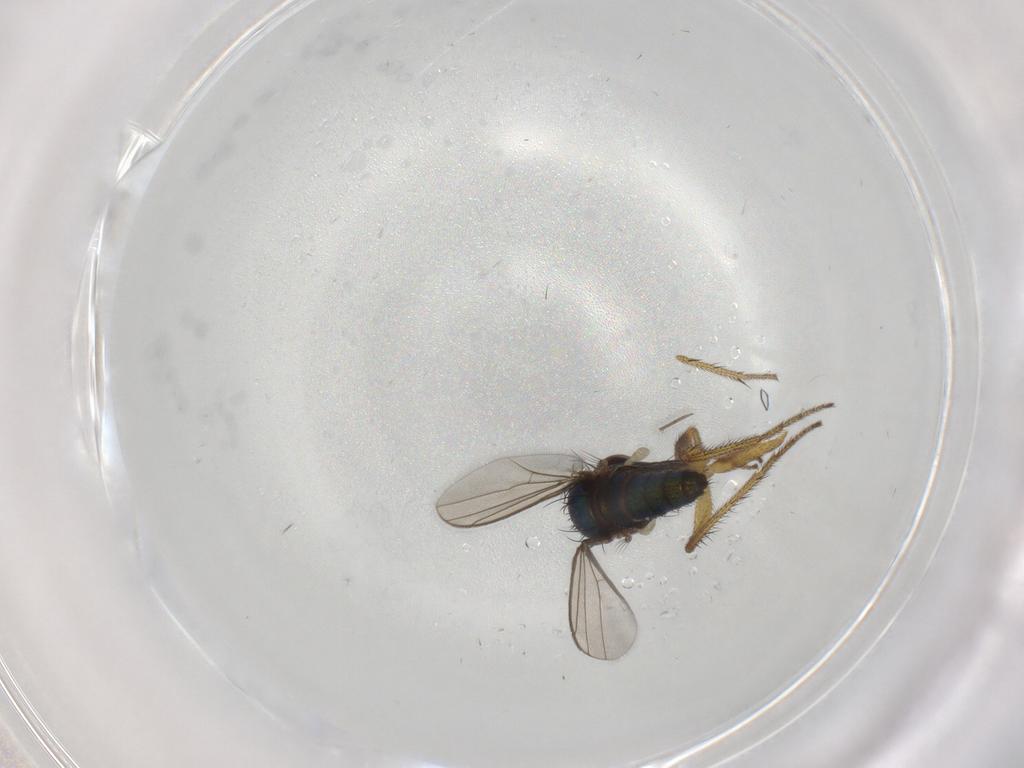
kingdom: Animalia
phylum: Arthropoda
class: Insecta
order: Diptera
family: Dolichopodidae
